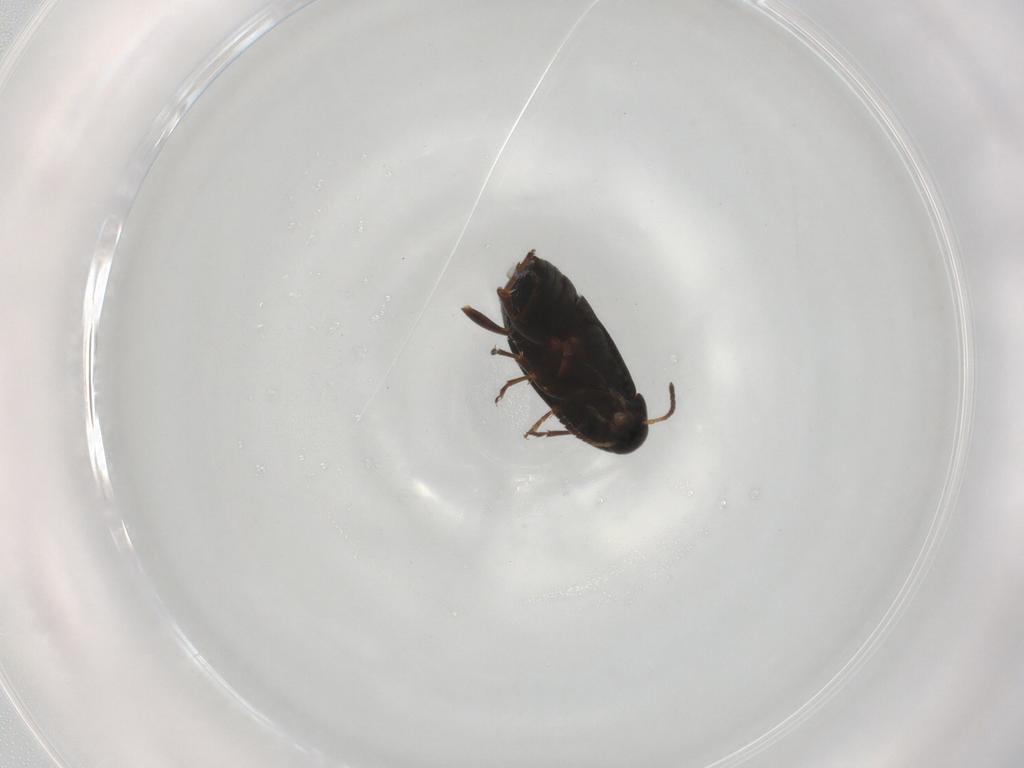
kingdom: Animalia
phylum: Arthropoda
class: Insecta
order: Coleoptera
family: Scraptiidae
